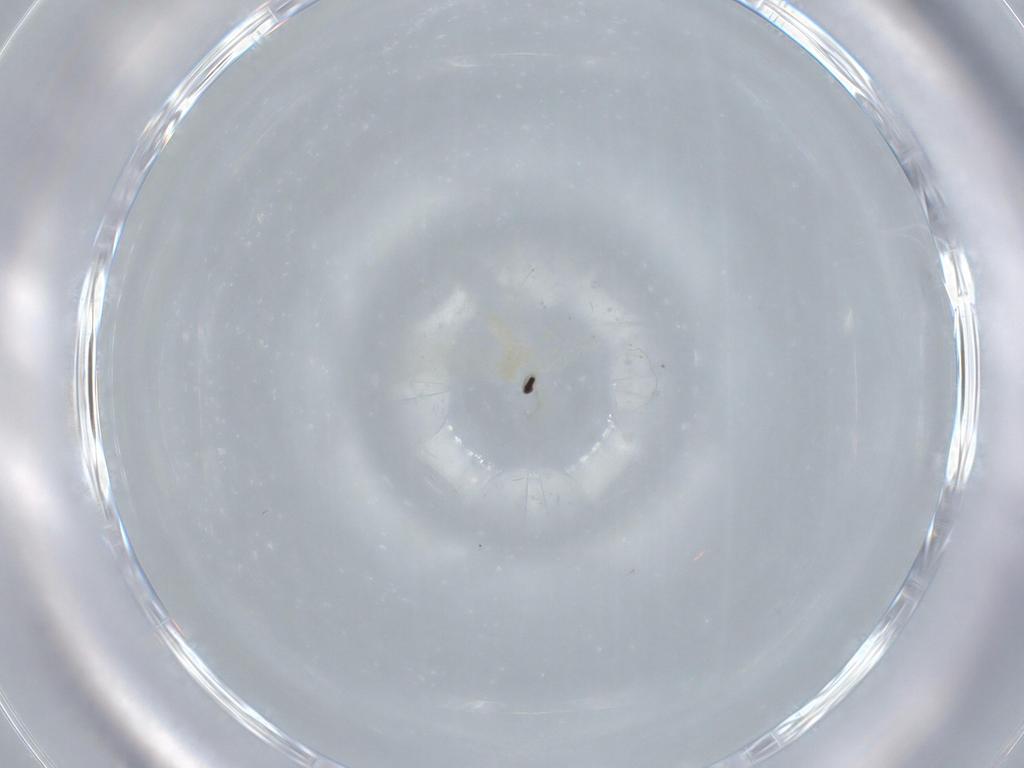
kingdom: Animalia
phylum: Arthropoda
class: Insecta
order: Diptera
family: Cecidomyiidae
